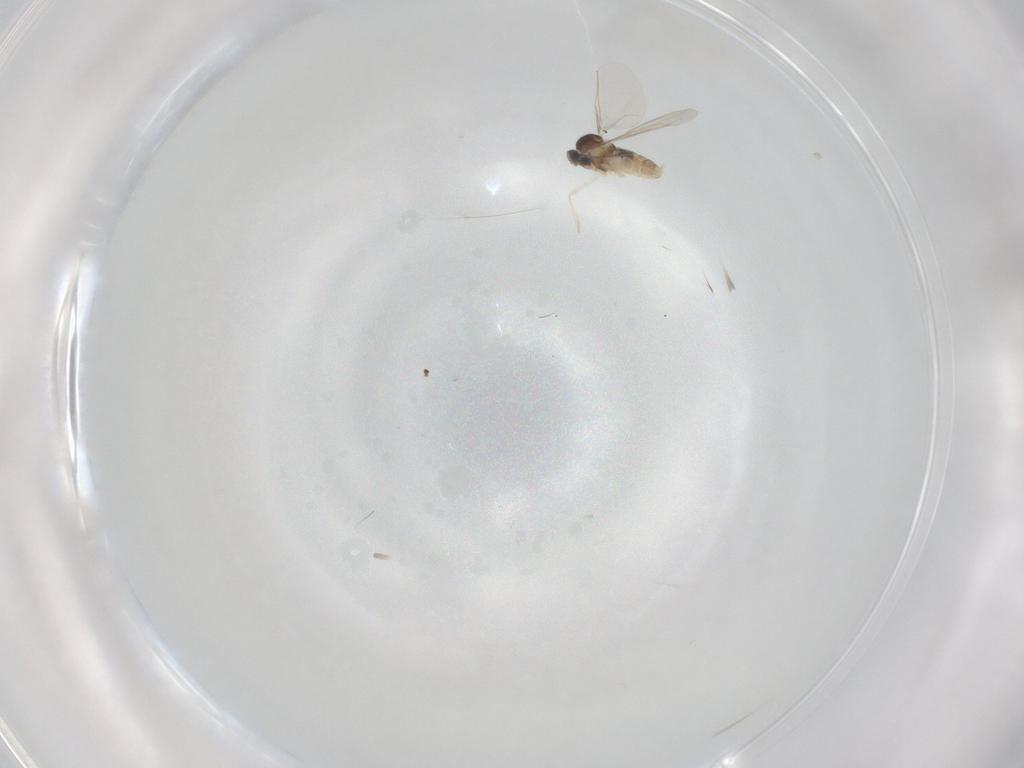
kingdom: Animalia
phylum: Arthropoda
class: Insecta
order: Diptera
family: Cecidomyiidae
